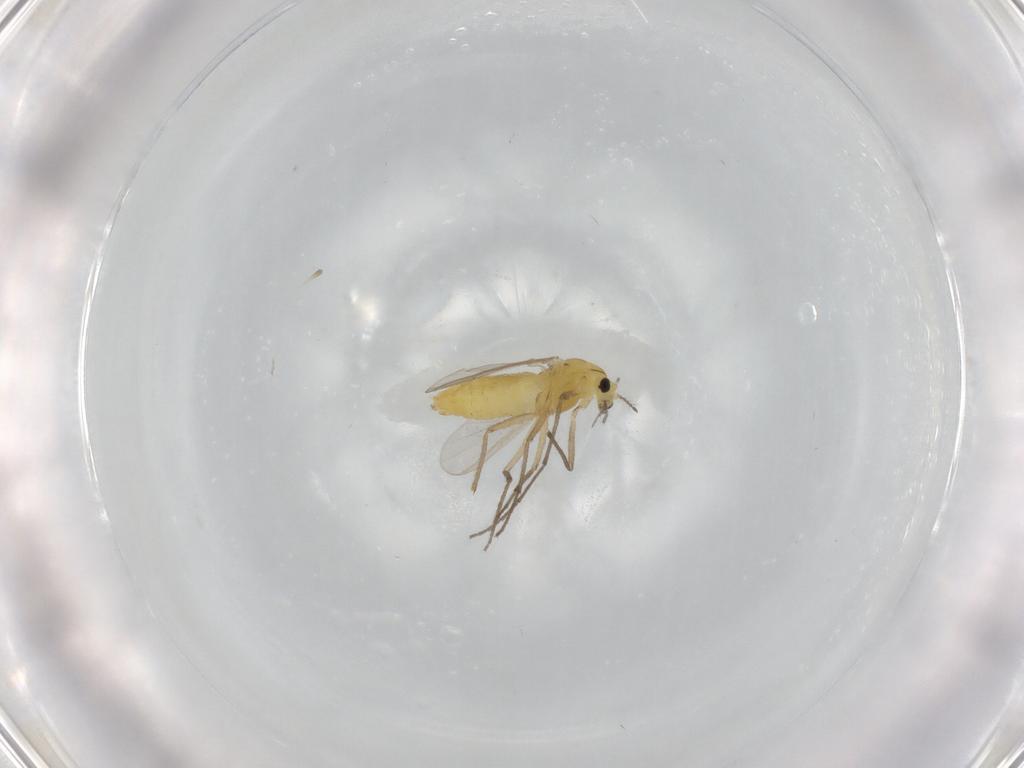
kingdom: Animalia
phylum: Arthropoda
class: Insecta
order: Diptera
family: Chironomidae
